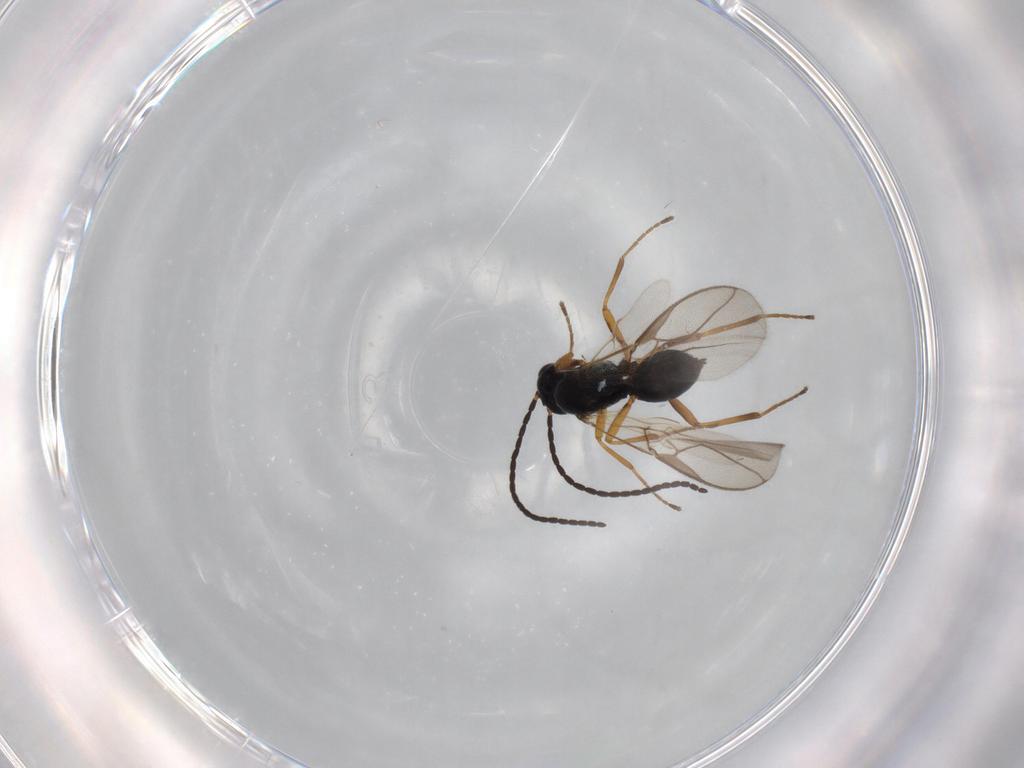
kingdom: Animalia
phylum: Arthropoda
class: Insecta
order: Hymenoptera
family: Braconidae
